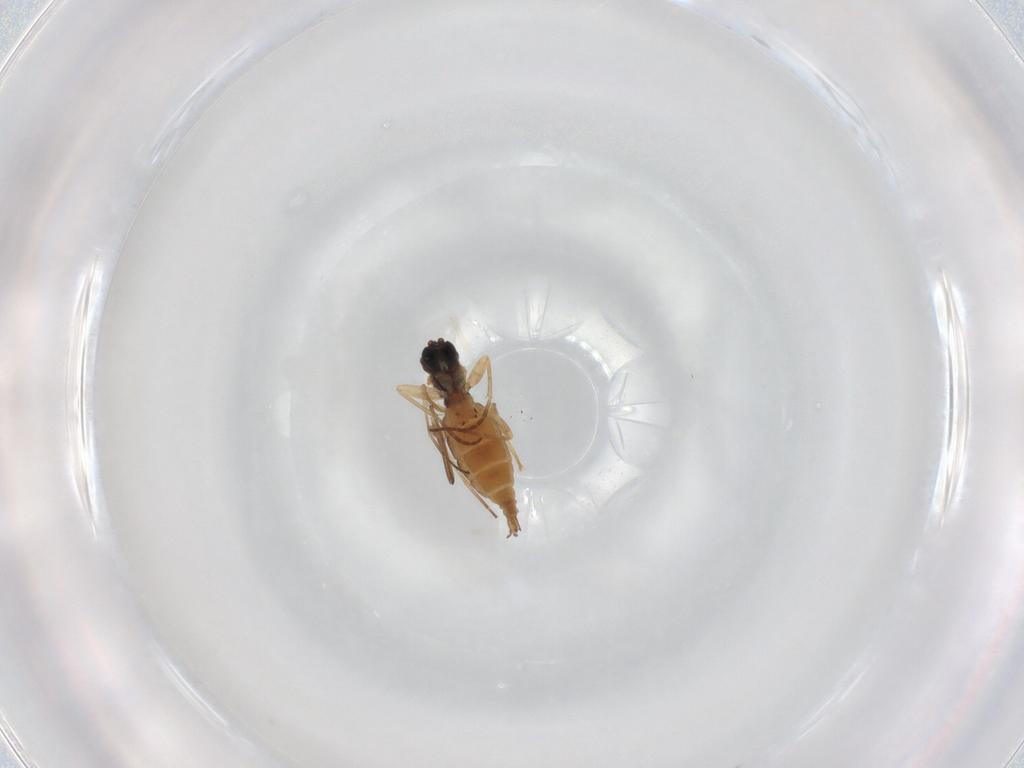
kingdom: Animalia
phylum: Arthropoda
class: Insecta
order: Diptera
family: Sciaridae
